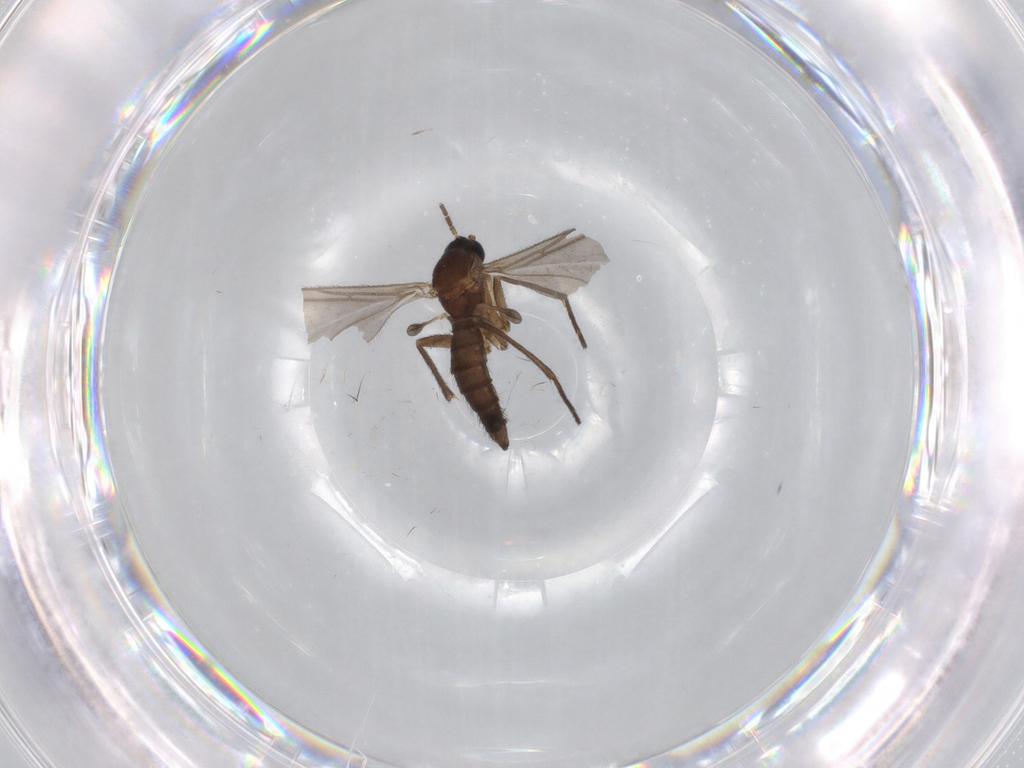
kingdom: Animalia
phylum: Arthropoda
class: Insecta
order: Diptera
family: Sciaridae
